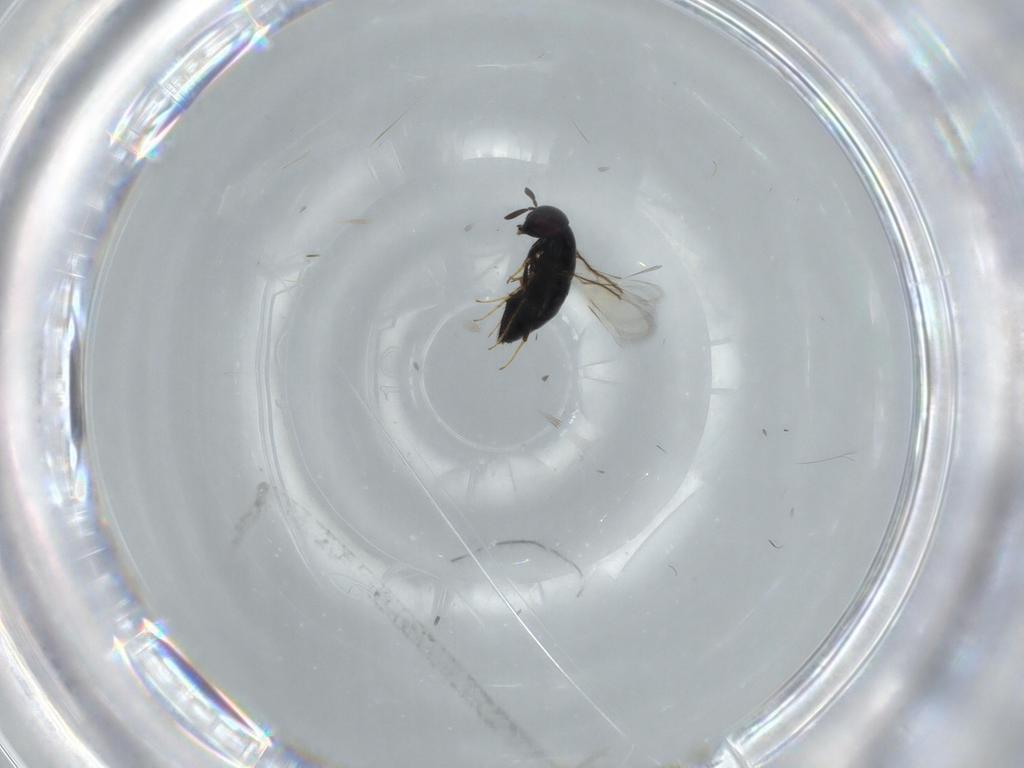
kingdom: Animalia
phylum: Arthropoda
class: Insecta
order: Hymenoptera
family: Signiphoridae
